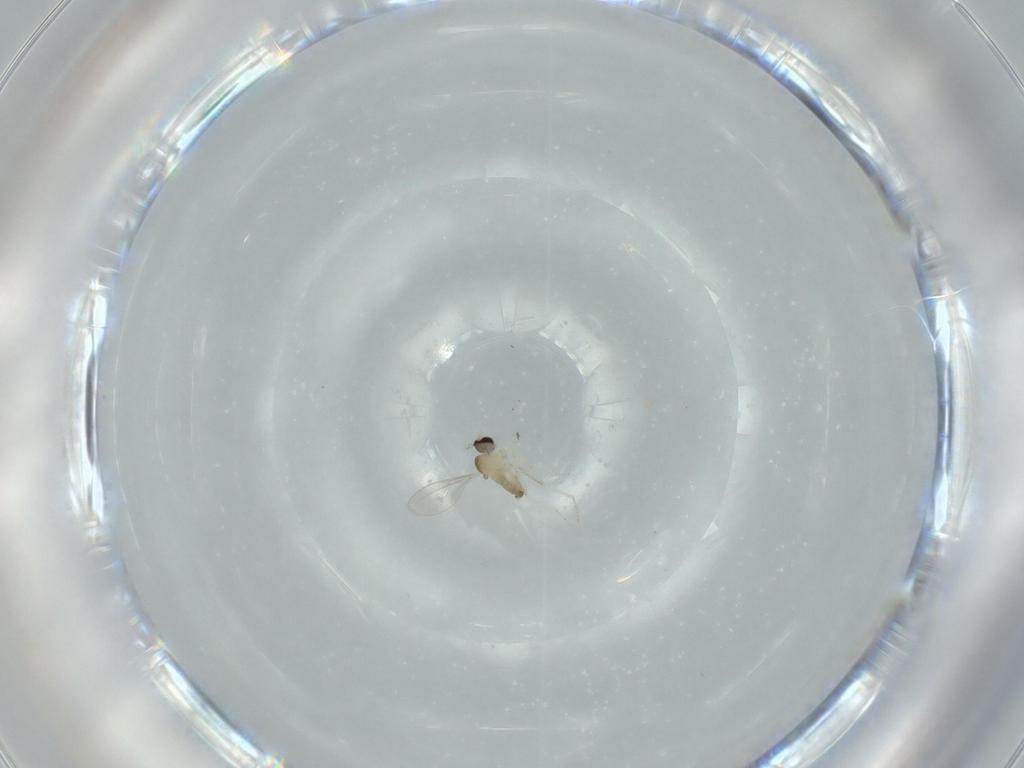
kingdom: Animalia
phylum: Arthropoda
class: Insecta
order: Diptera
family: Cecidomyiidae
